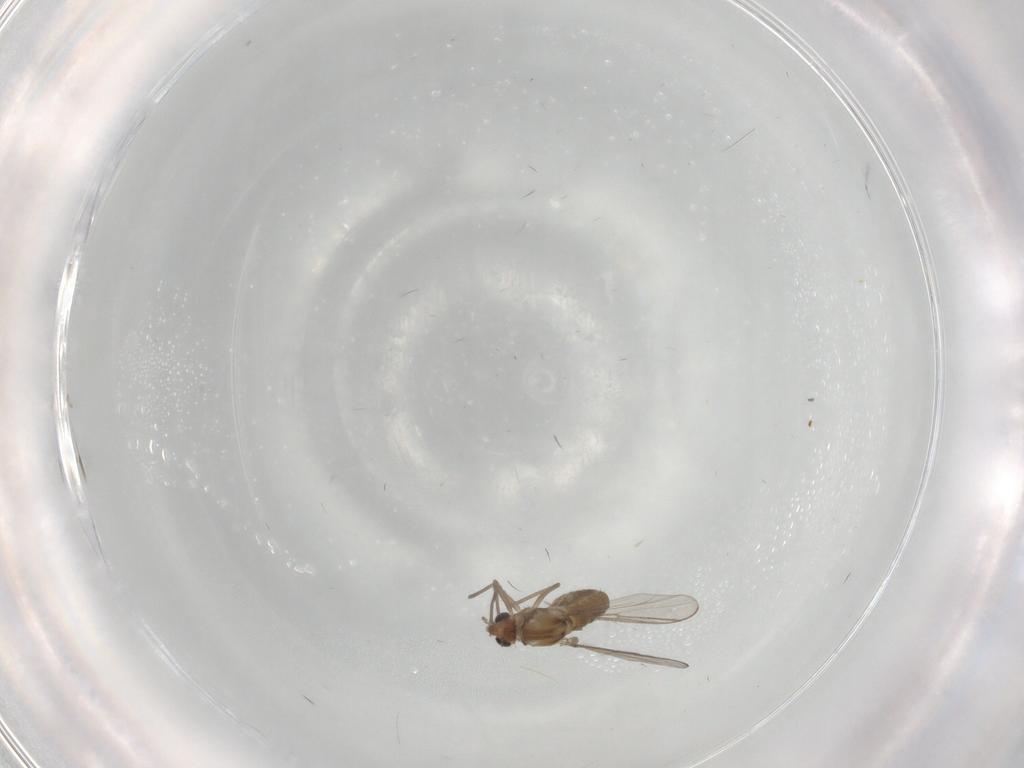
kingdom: Animalia
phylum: Arthropoda
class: Insecta
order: Diptera
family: Chironomidae
